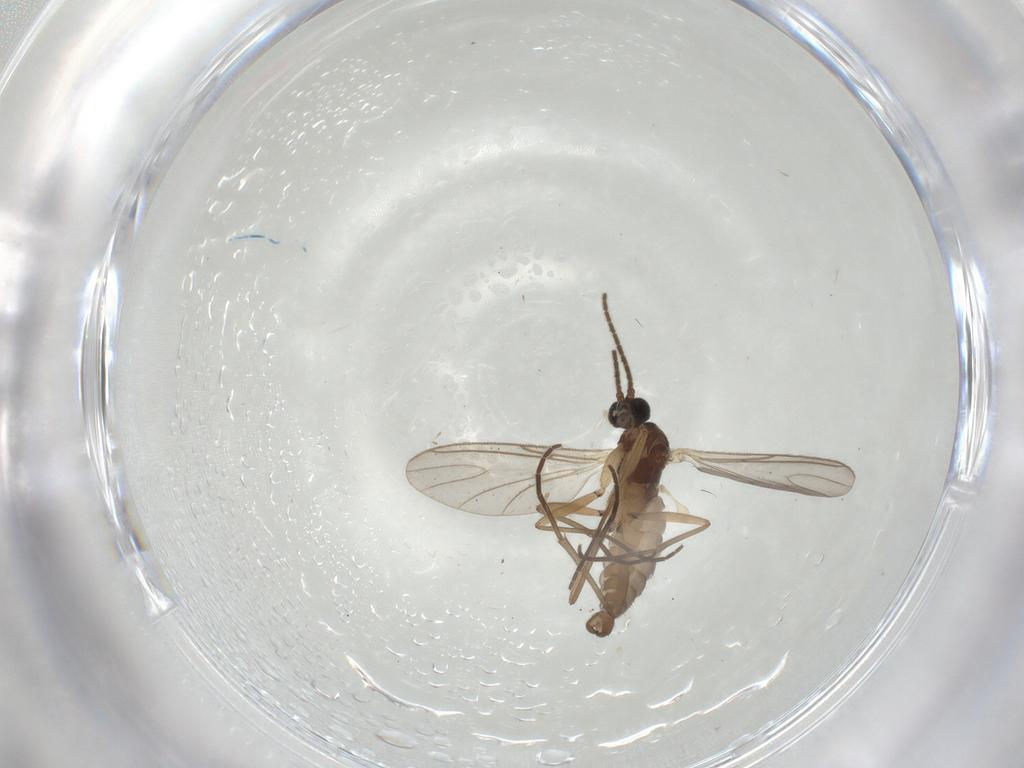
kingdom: Animalia
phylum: Arthropoda
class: Insecta
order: Diptera
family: Sciaridae
